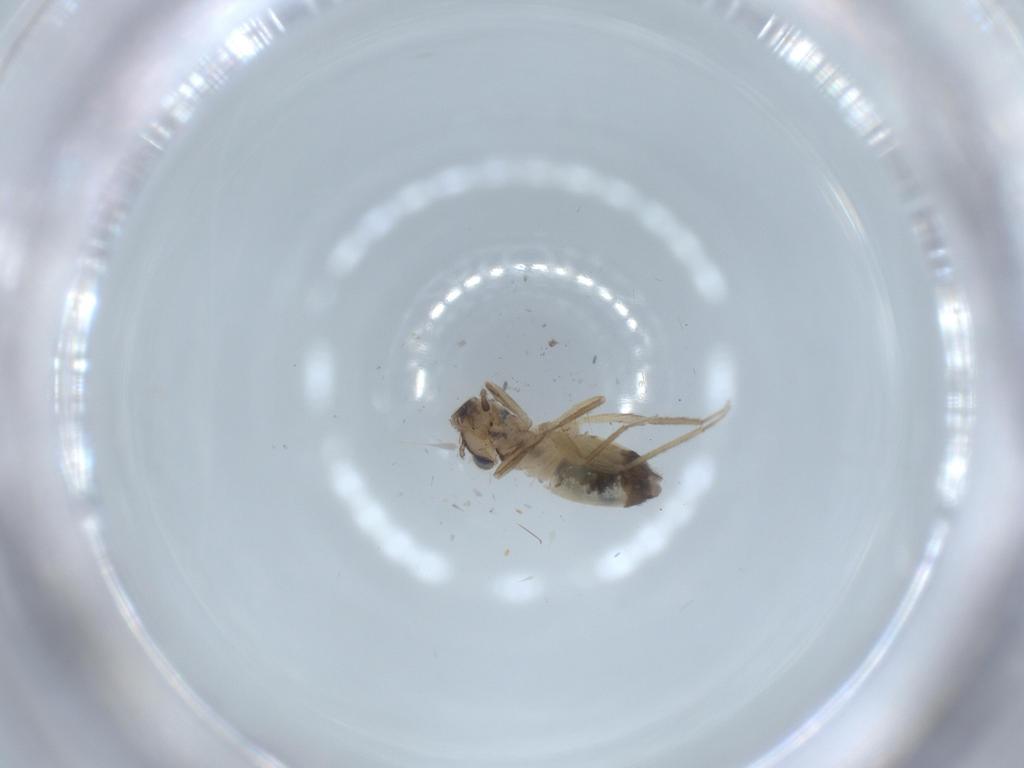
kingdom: Animalia
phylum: Arthropoda
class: Insecta
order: Psocodea
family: Lepidopsocidae
